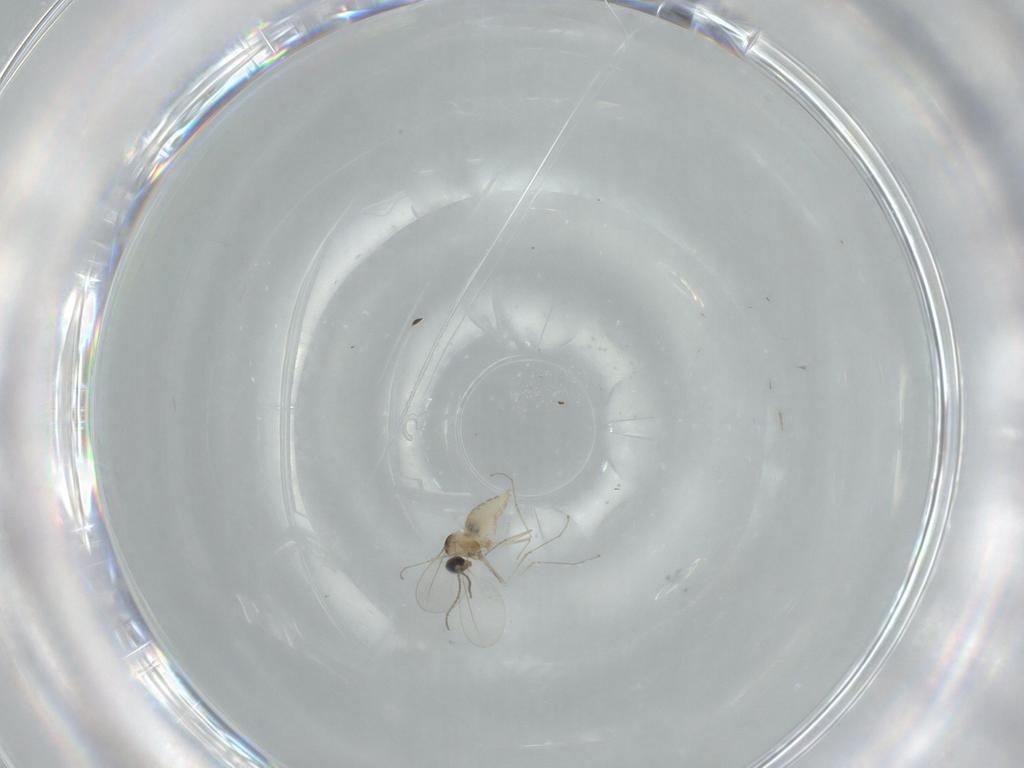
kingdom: Animalia
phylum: Arthropoda
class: Insecta
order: Diptera
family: Cecidomyiidae
